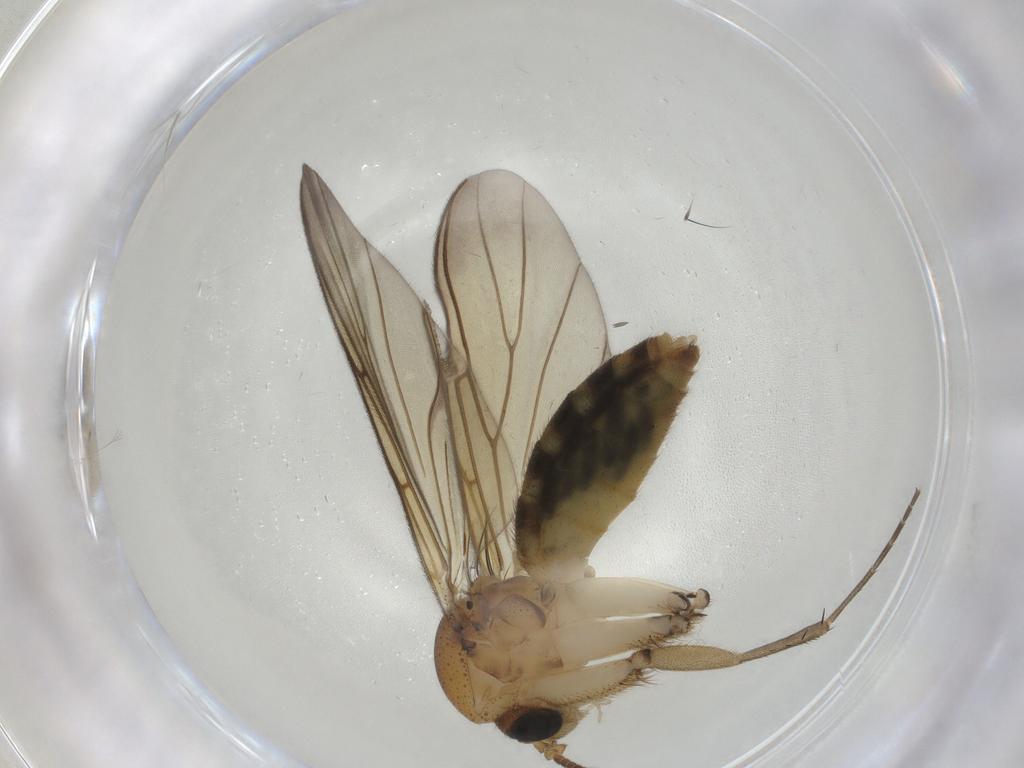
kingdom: Animalia
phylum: Arthropoda
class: Insecta
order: Diptera
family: Mycetophilidae
